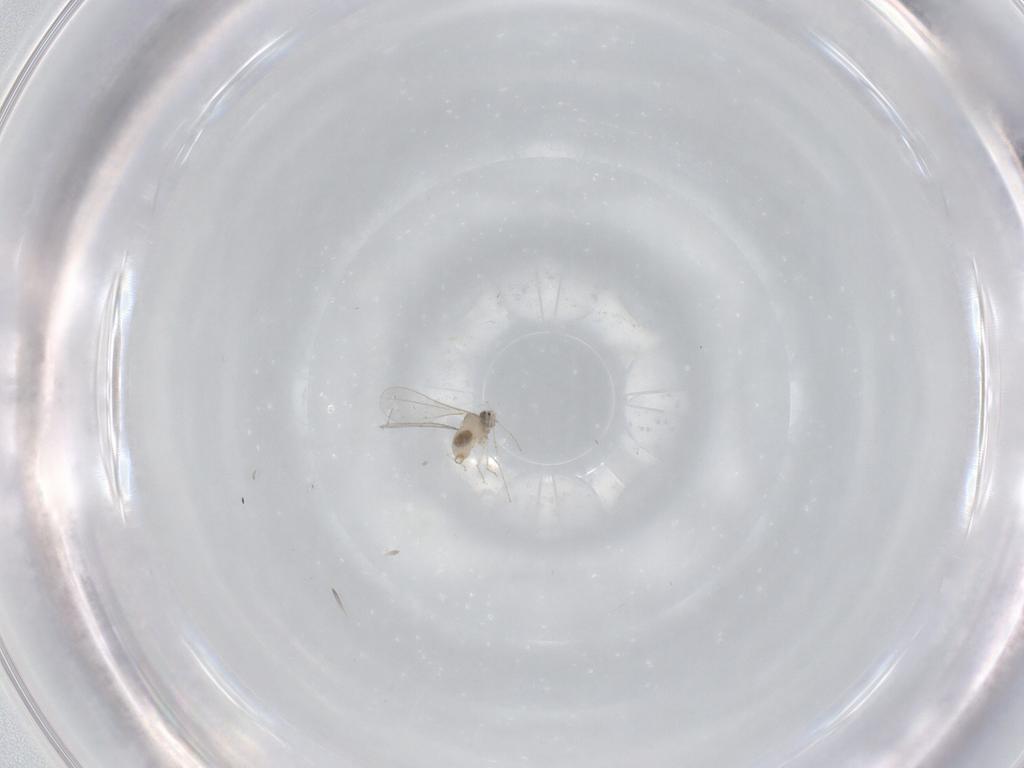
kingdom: Animalia
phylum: Arthropoda
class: Insecta
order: Diptera
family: Cecidomyiidae
